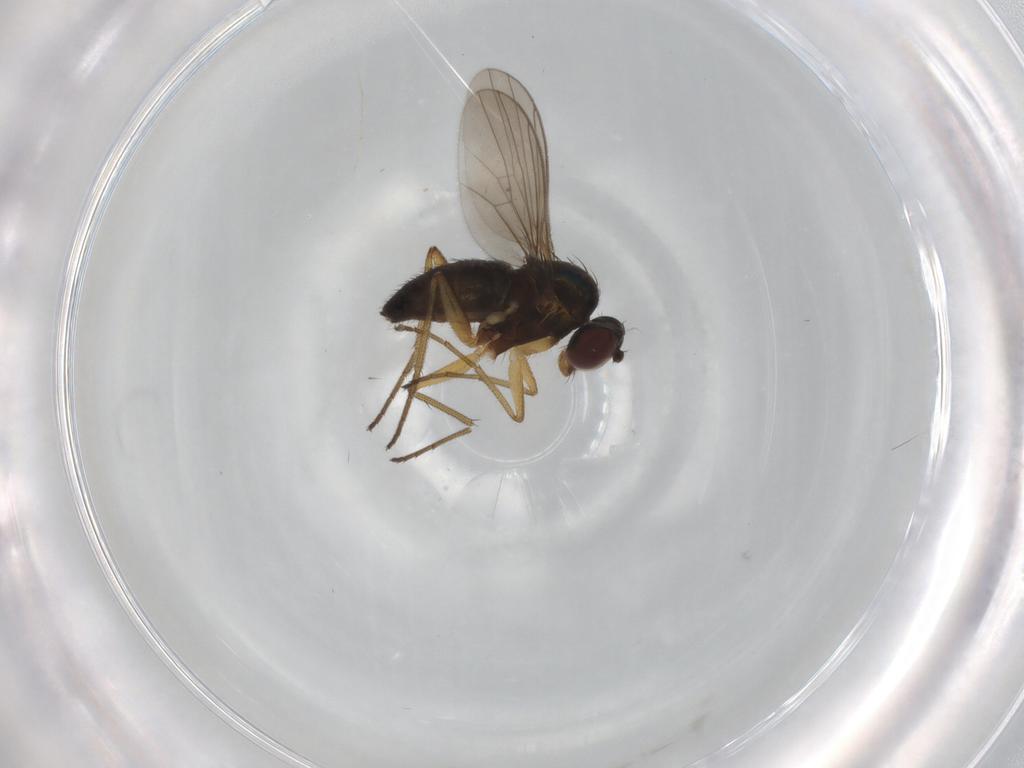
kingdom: Animalia
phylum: Arthropoda
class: Insecta
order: Diptera
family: Dolichopodidae
